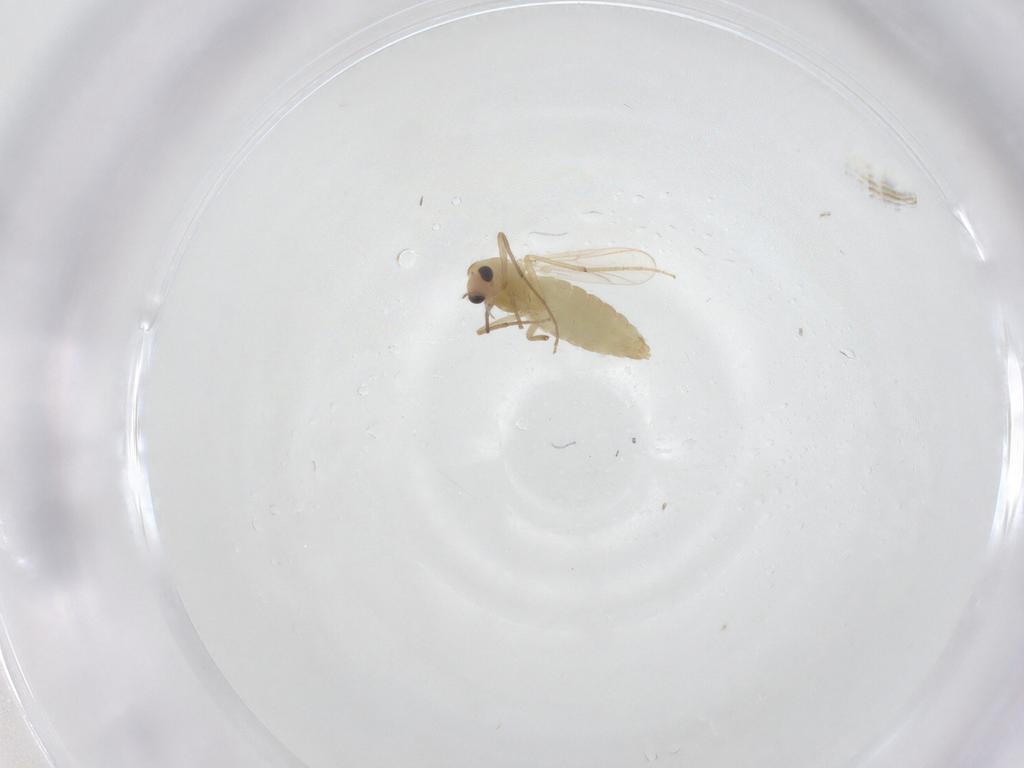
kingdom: Animalia
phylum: Arthropoda
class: Insecta
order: Diptera
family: Chironomidae
